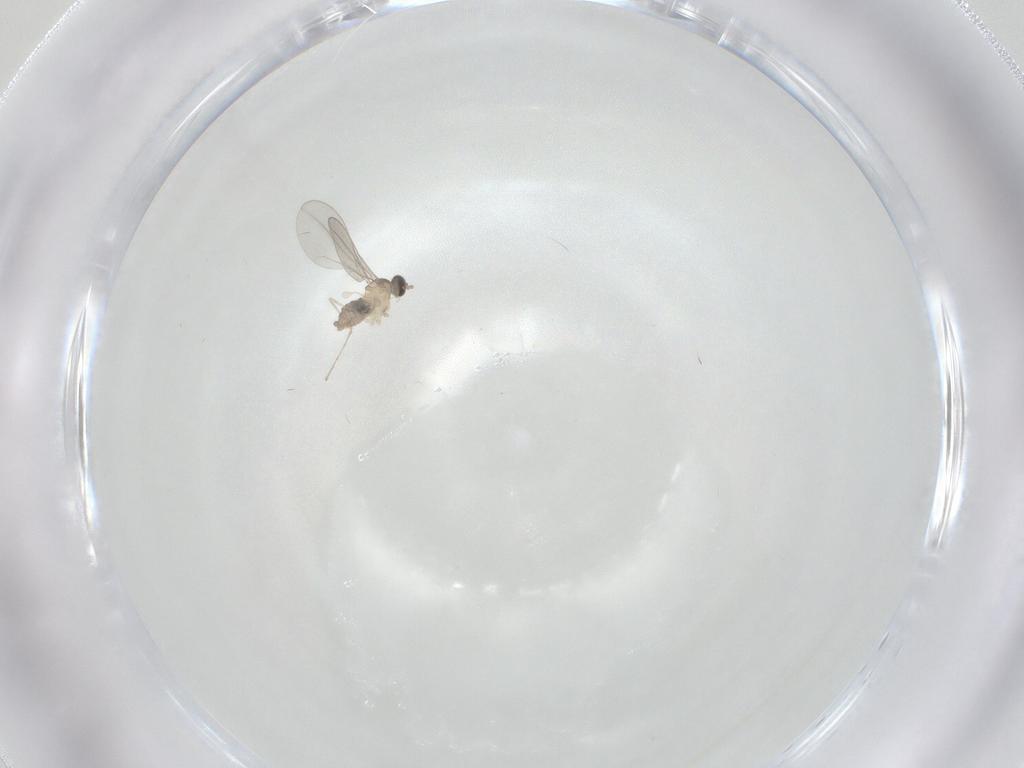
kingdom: Animalia
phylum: Arthropoda
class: Insecta
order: Diptera
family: Cecidomyiidae
